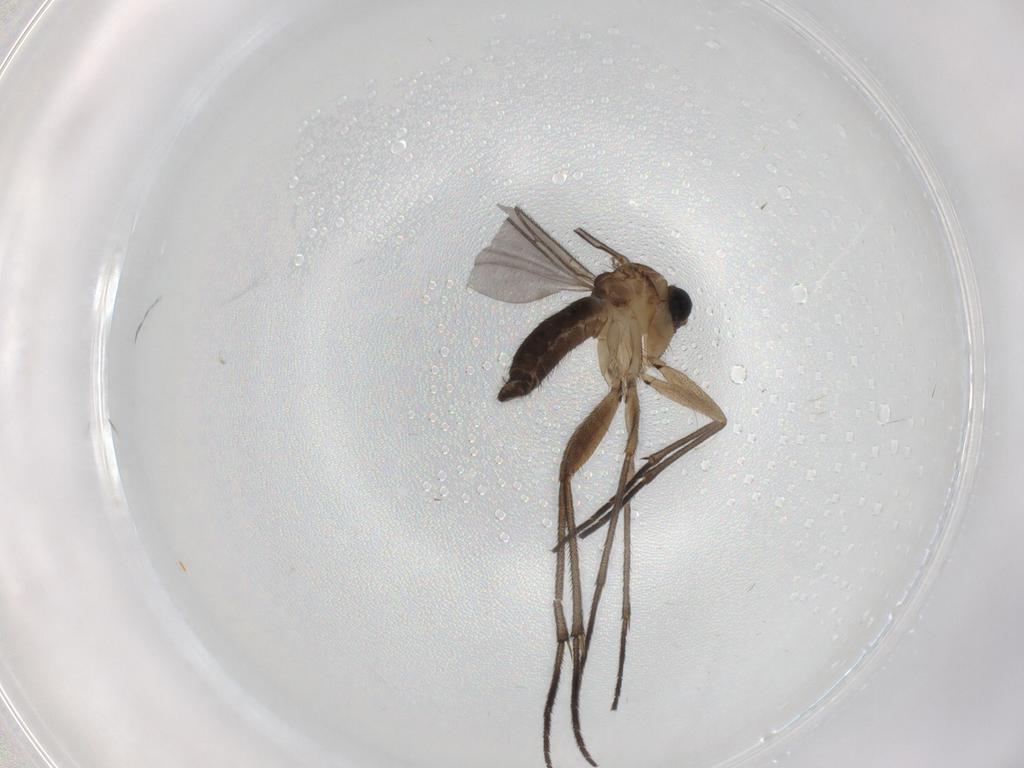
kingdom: Animalia
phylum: Arthropoda
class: Insecta
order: Diptera
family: Sciaridae
